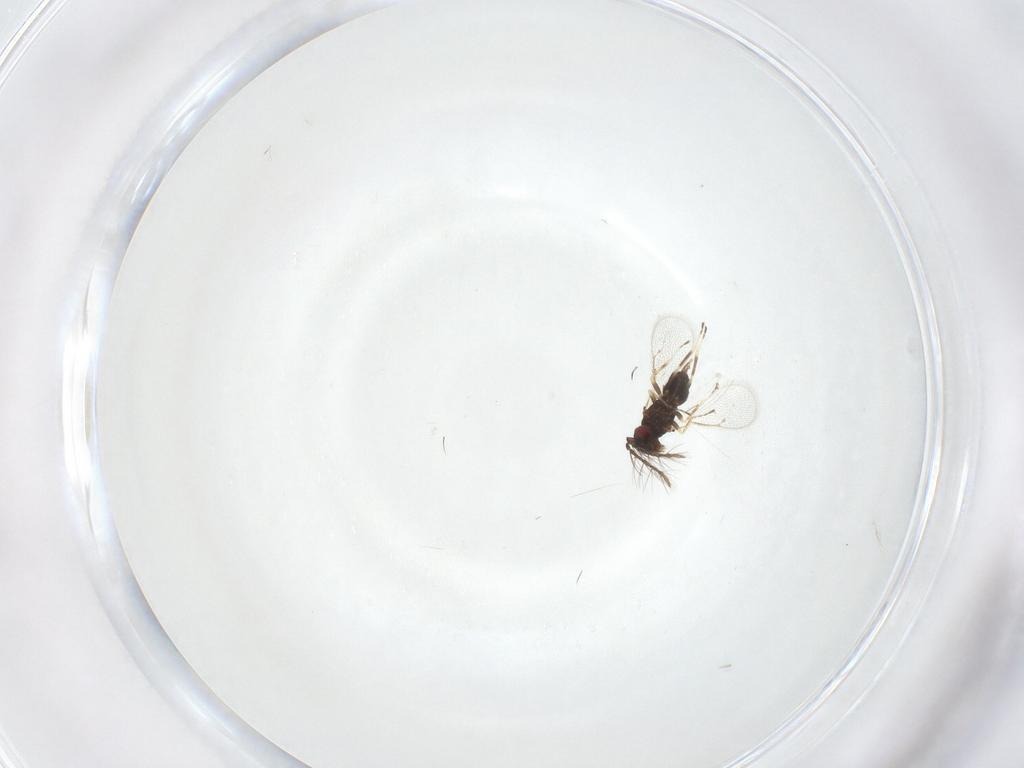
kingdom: Animalia
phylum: Arthropoda
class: Insecta
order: Hymenoptera
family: Eulophidae
